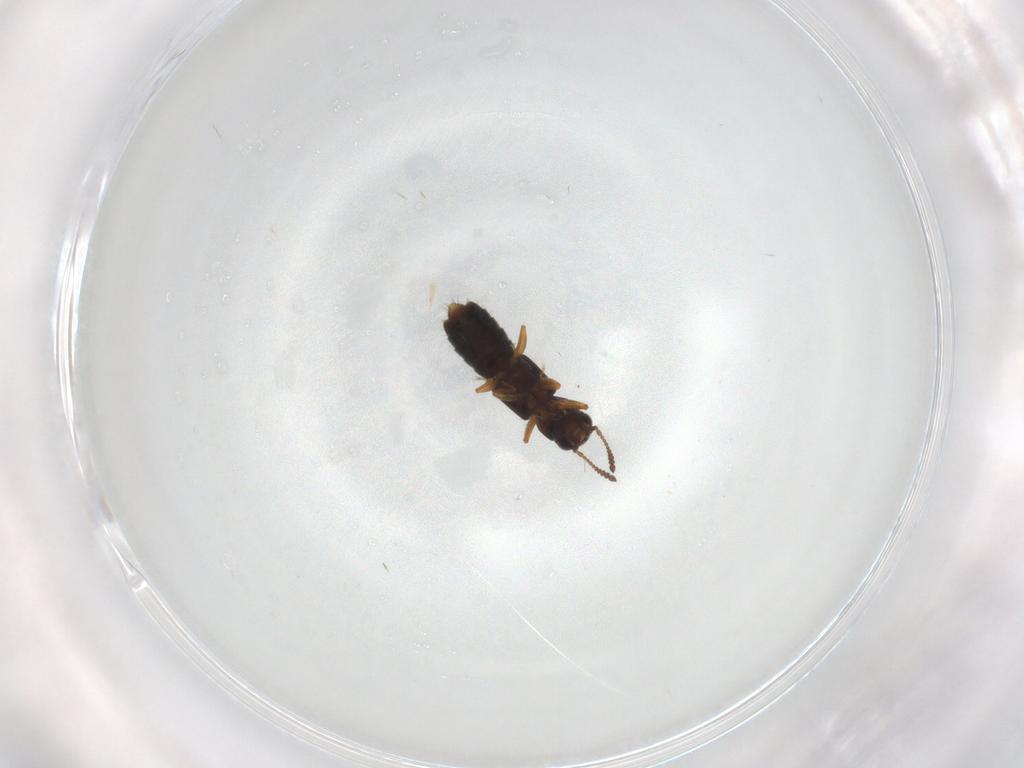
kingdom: Animalia
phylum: Arthropoda
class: Insecta
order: Coleoptera
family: Staphylinidae
